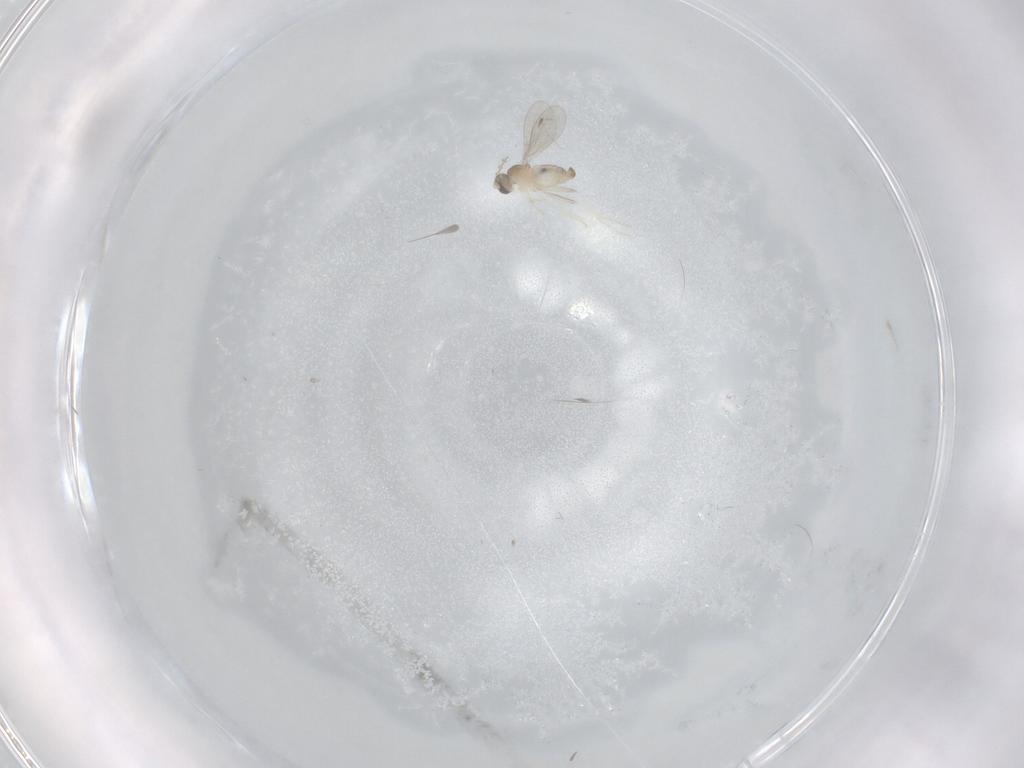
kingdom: Animalia
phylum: Arthropoda
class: Insecta
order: Diptera
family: Cecidomyiidae
